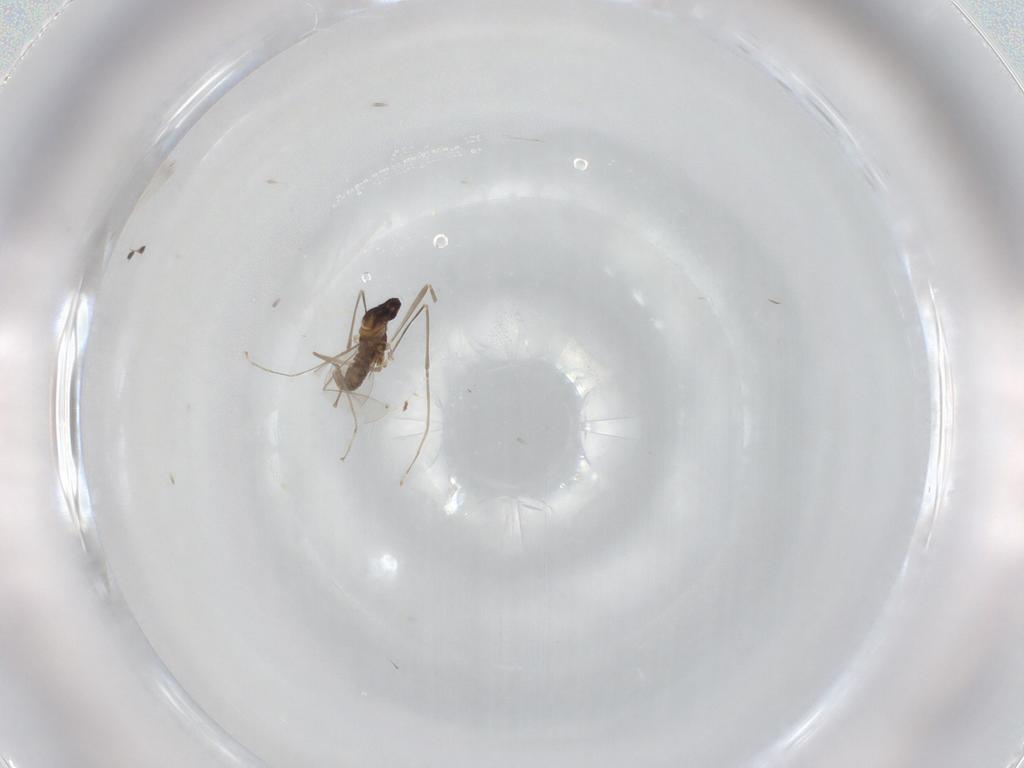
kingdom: Animalia
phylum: Arthropoda
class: Insecta
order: Diptera
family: Cecidomyiidae
